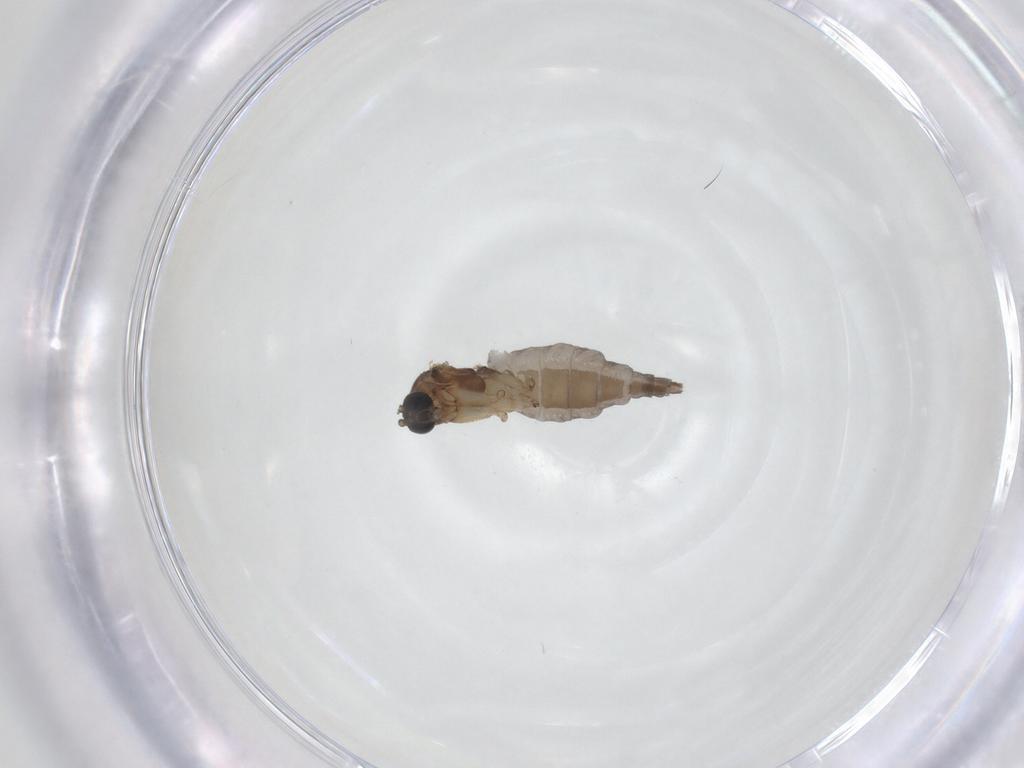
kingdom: Animalia
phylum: Arthropoda
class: Insecta
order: Diptera
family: Sciaridae
